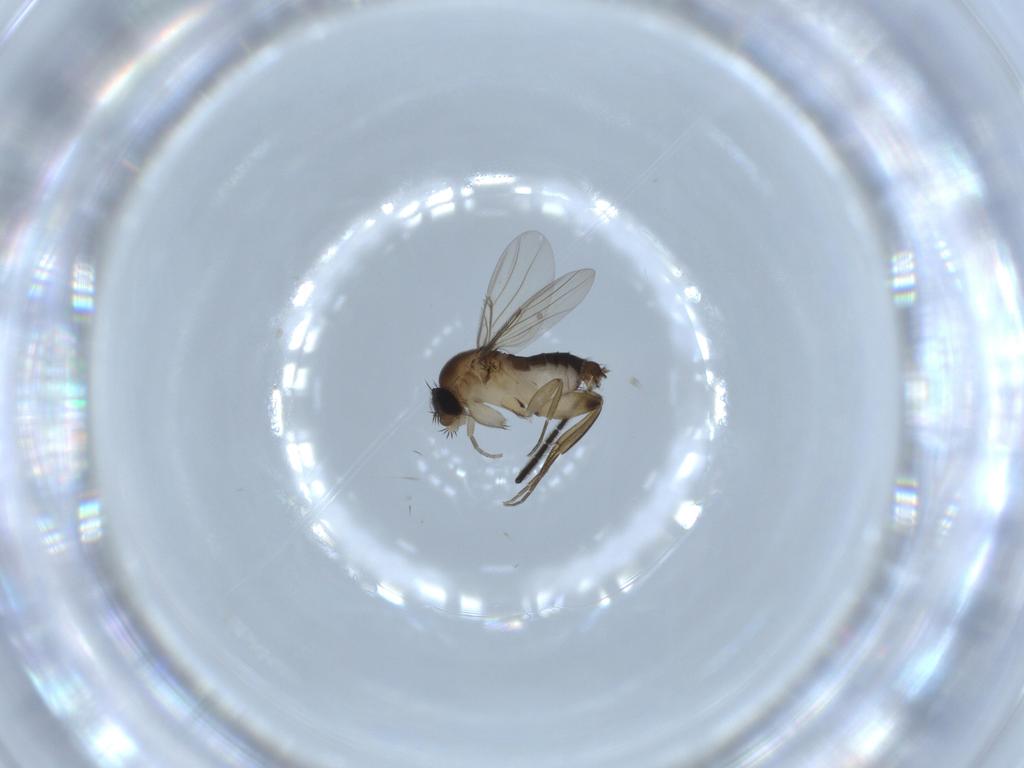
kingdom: Animalia
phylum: Arthropoda
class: Insecta
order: Diptera
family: Phoridae
